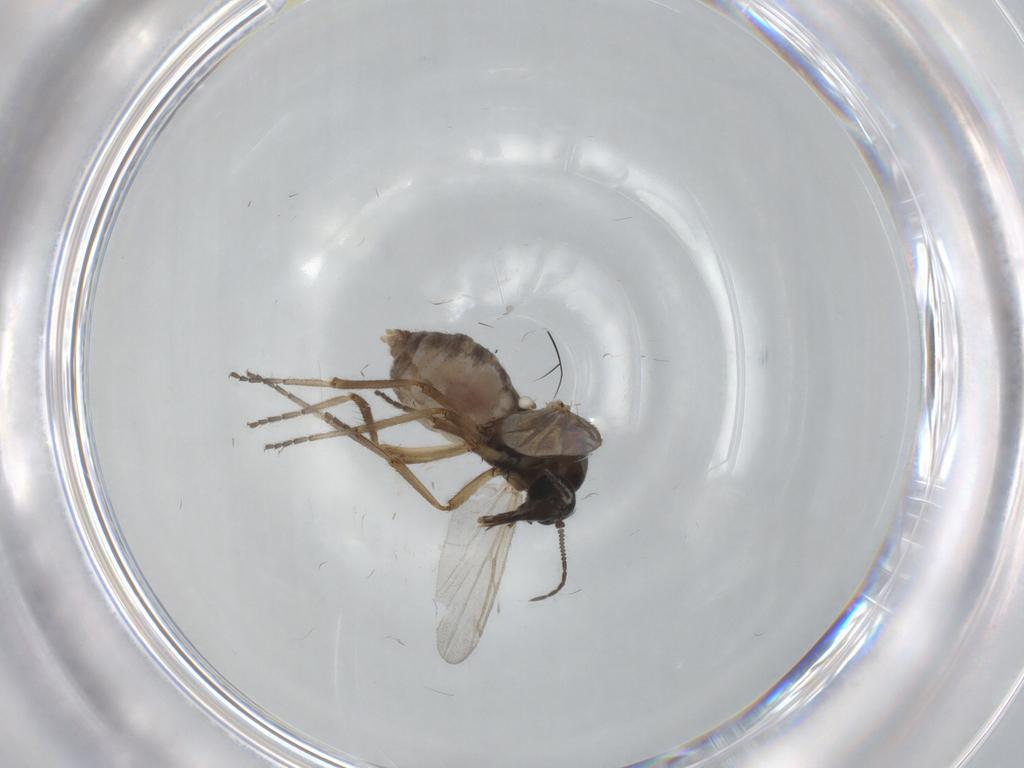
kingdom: Animalia
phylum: Arthropoda
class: Insecta
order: Diptera
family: Ceratopogonidae
